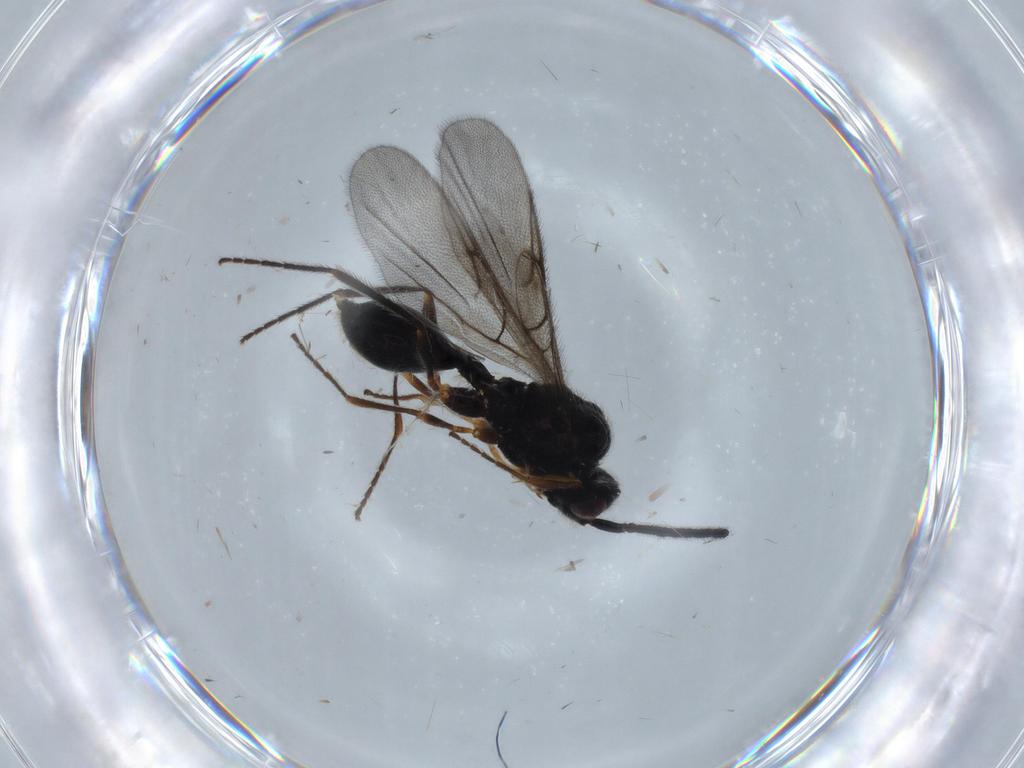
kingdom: Animalia
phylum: Arthropoda
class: Insecta
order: Hymenoptera
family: Diapriidae
